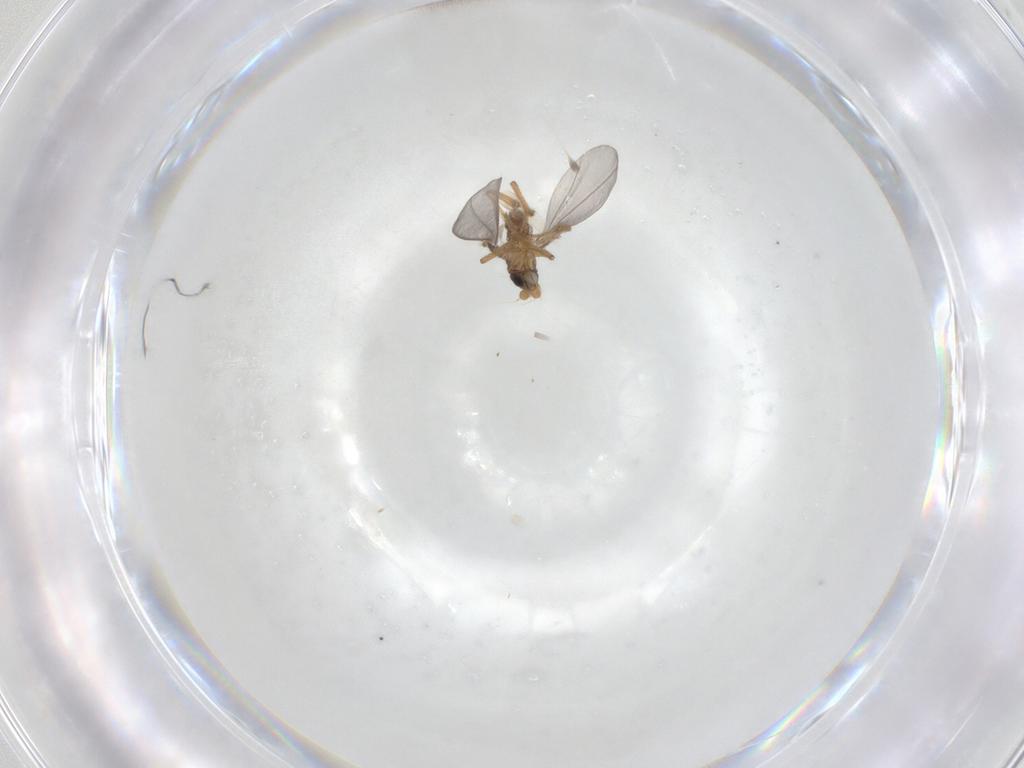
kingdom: Animalia
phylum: Arthropoda
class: Insecta
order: Diptera
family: Phoridae
